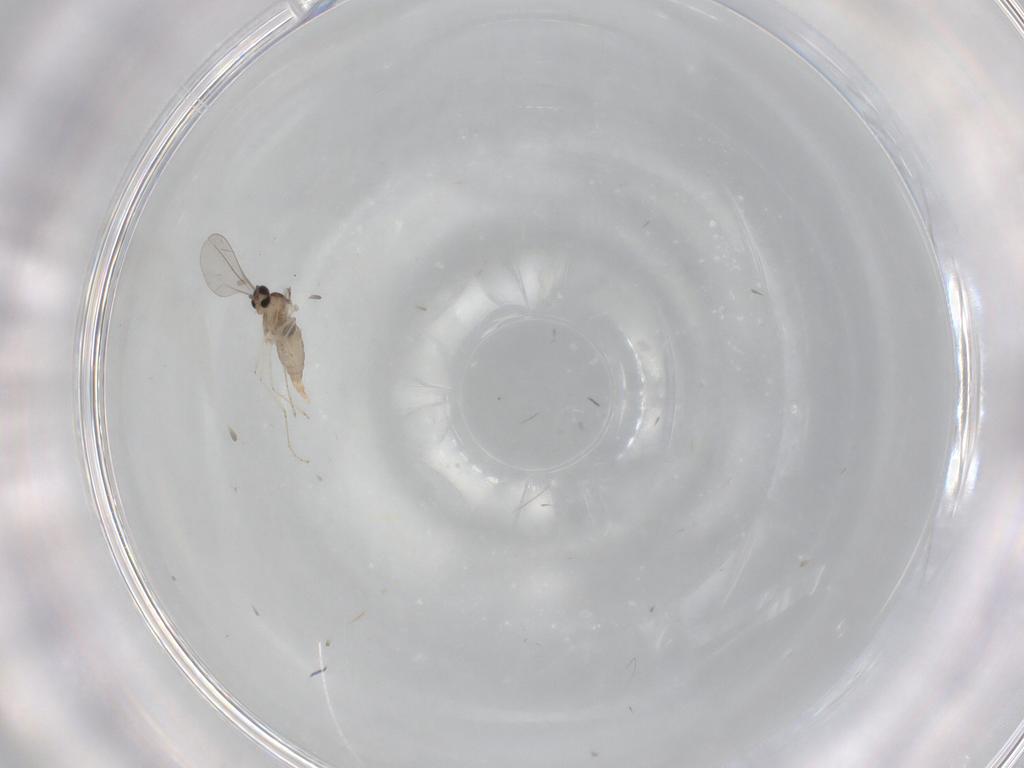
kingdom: Animalia
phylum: Arthropoda
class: Insecta
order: Diptera
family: Cecidomyiidae
